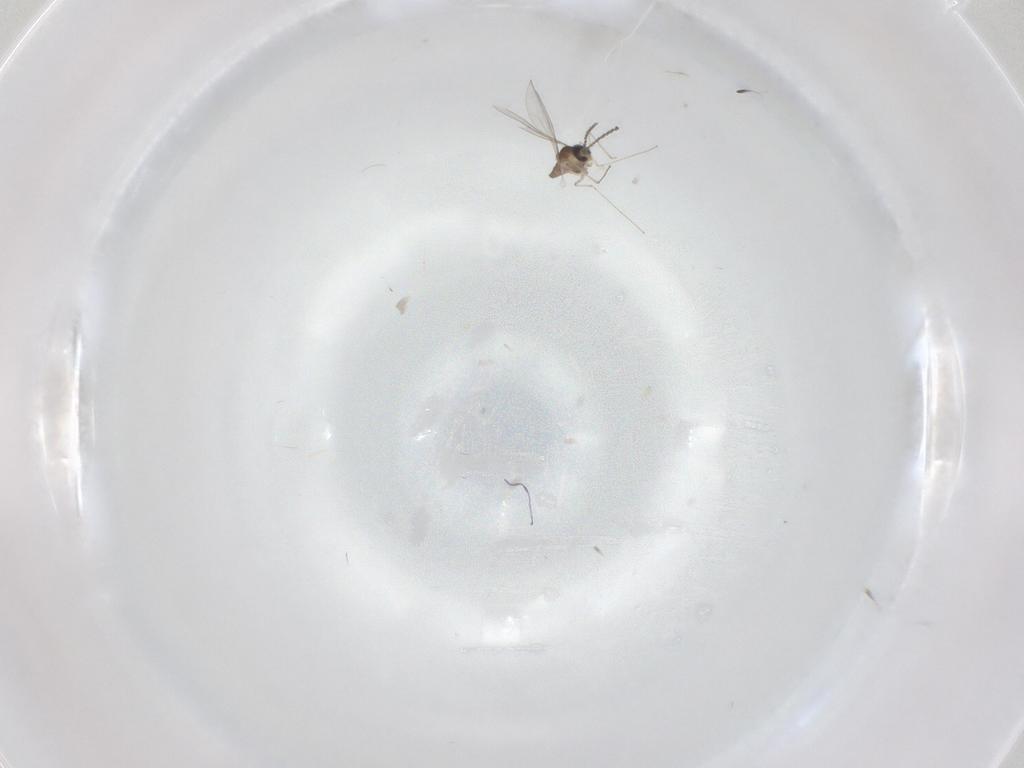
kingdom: Animalia
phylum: Arthropoda
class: Insecta
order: Diptera
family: Cecidomyiidae
